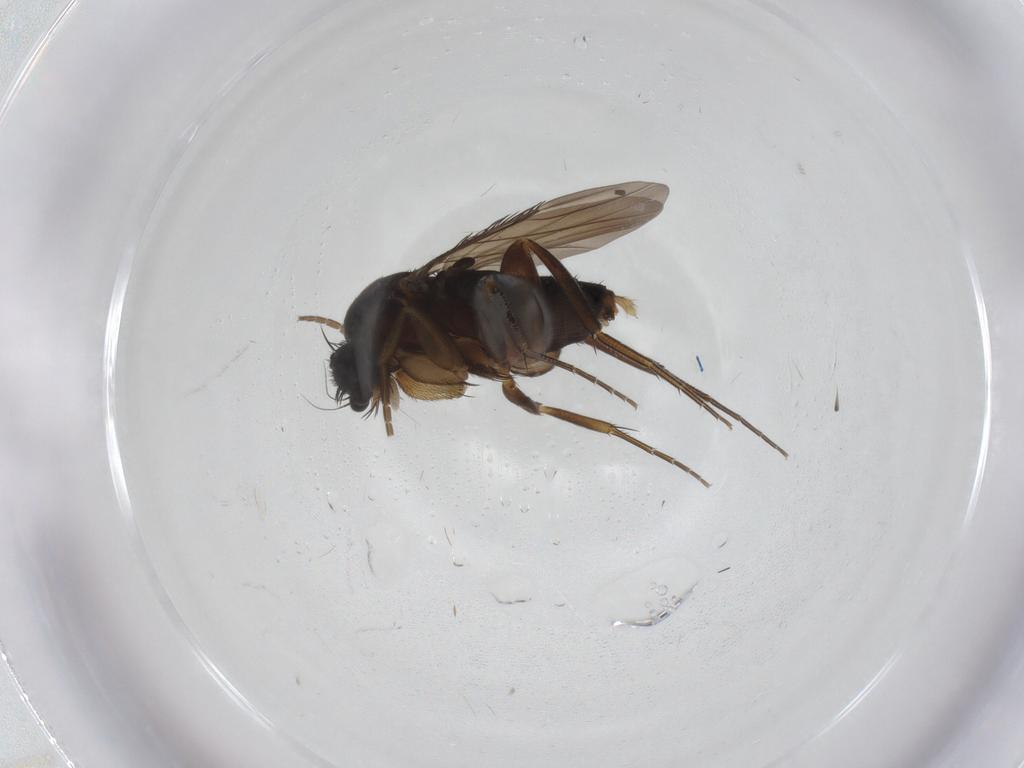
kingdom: Animalia
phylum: Arthropoda
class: Insecta
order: Diptera
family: Phoridae
